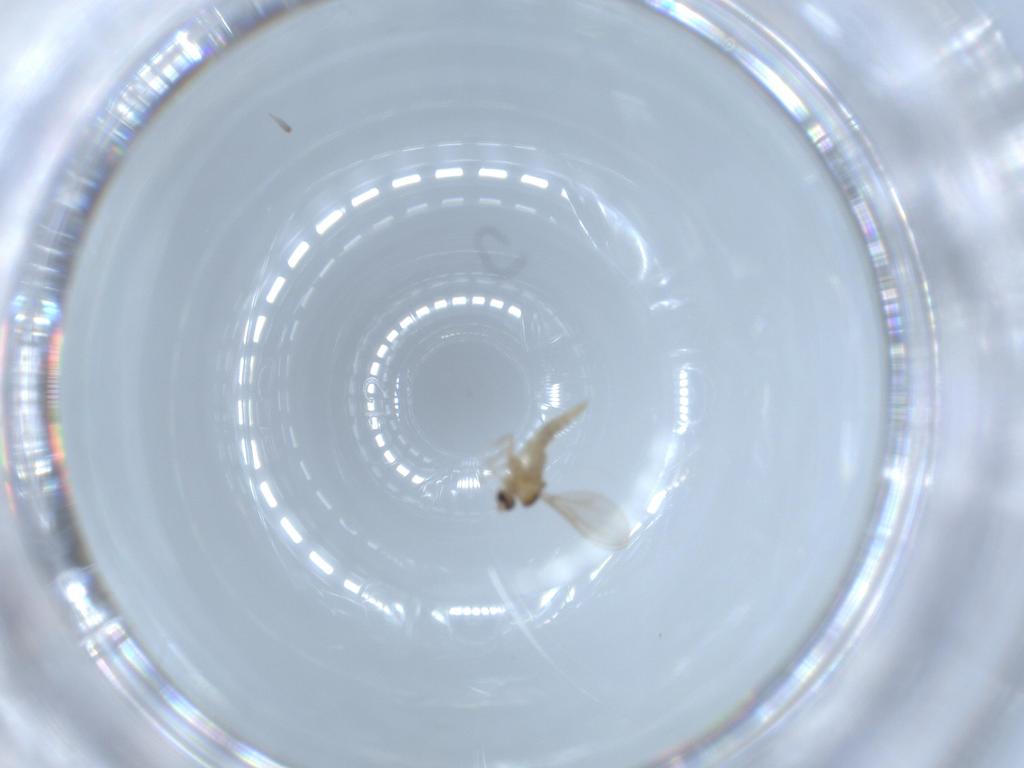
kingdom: Animalia
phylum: Arthropoda
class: Insecta
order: Diptera
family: Cecidomyiidae
